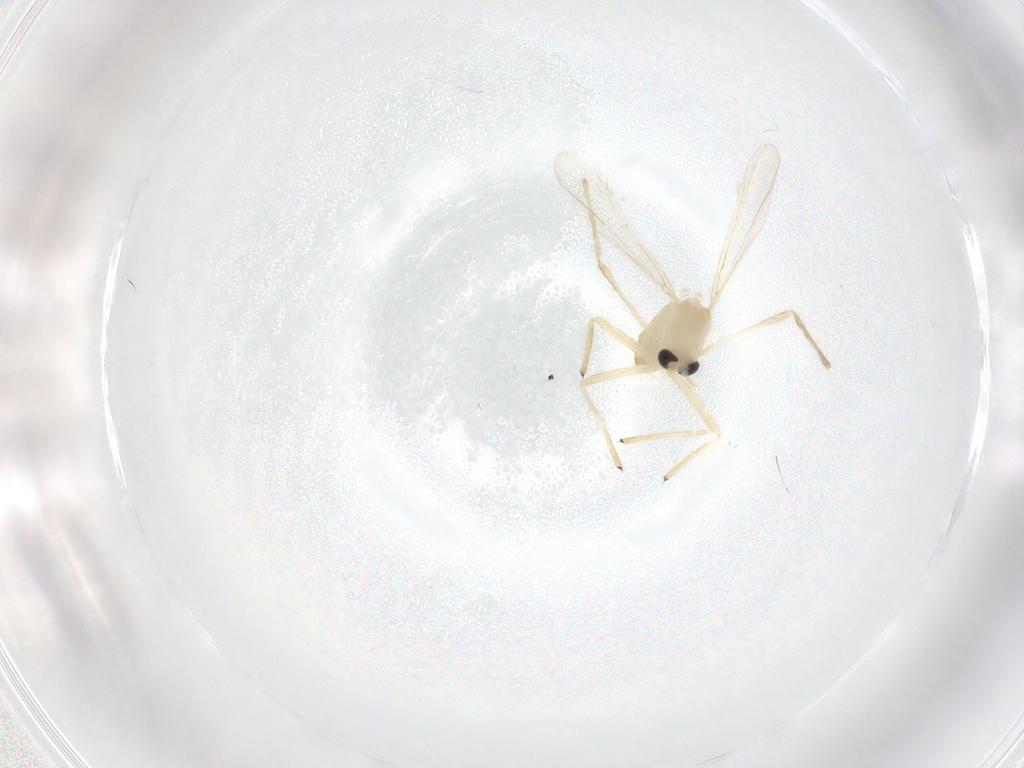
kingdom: Animalia
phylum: Arthropoda
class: Insecta
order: Diptera
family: Chironomidae
